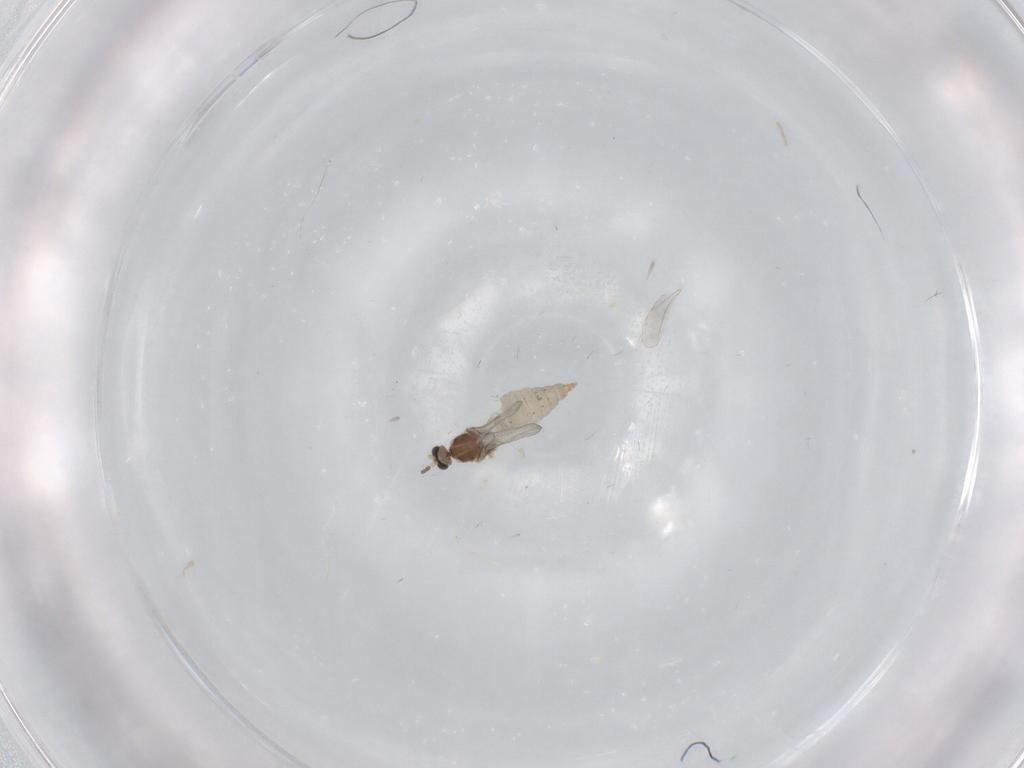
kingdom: Animalia
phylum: Arthropoda
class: Insecta
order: Diptera
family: Cecidomyiidae
